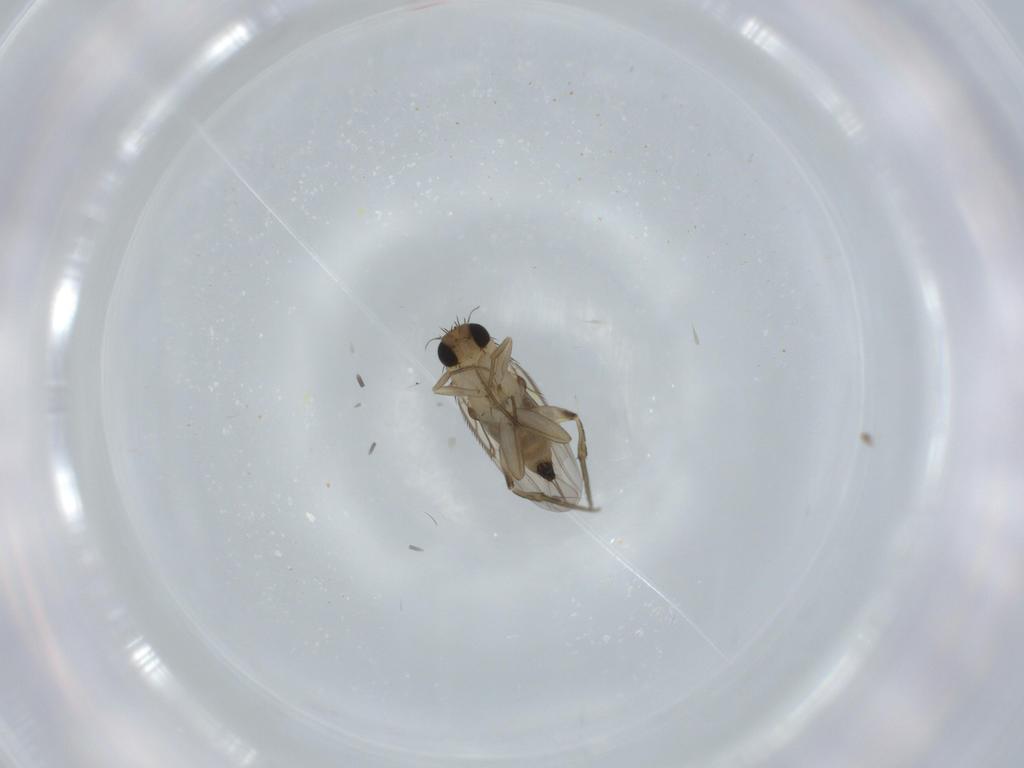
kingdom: Animalia
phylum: Arthropoda
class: Insecta
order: Diptera
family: Phoridae
